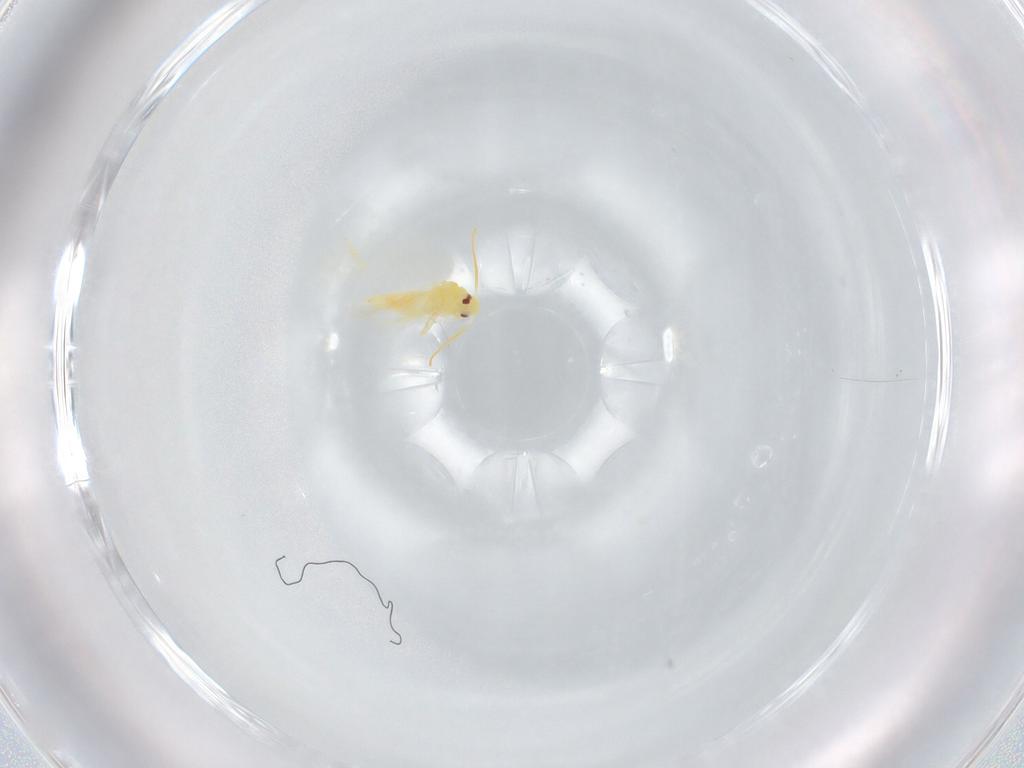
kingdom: Animalia
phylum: Arthropoda
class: Insecta
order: Hemiptera
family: Aleyrodidae
